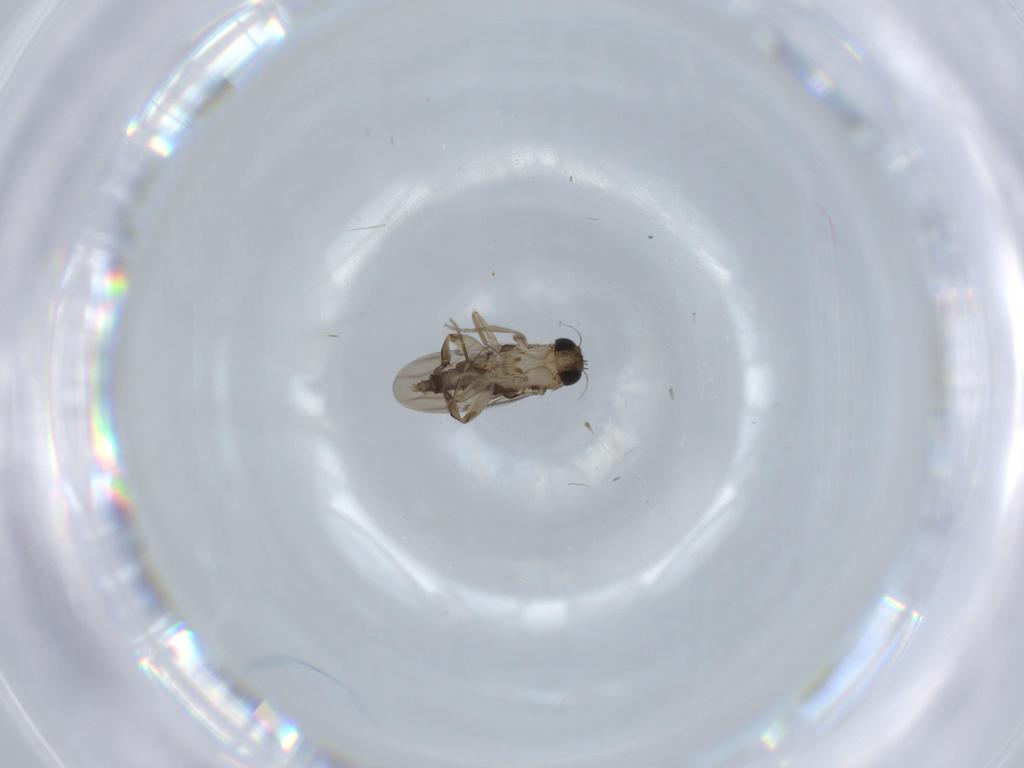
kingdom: Animalia
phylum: Arthropoda
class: Insecta
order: Diptera
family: Phoridae
